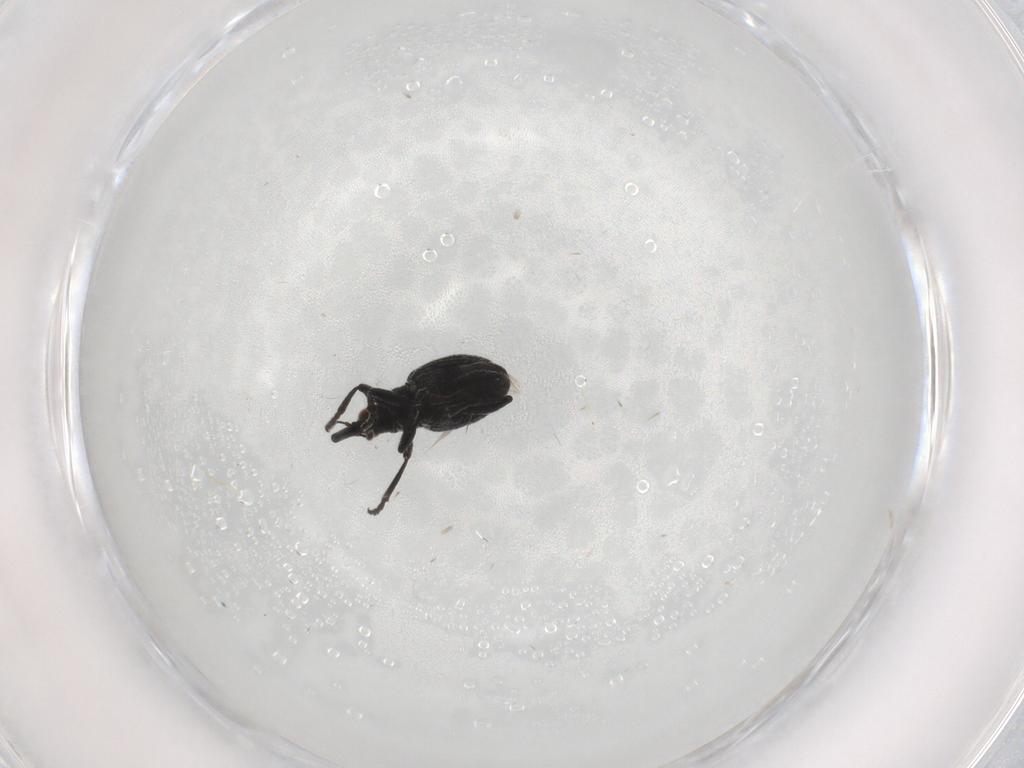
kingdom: Animalia
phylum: Arthropoda
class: Insecta
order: Coleoptera
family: Brentidae
